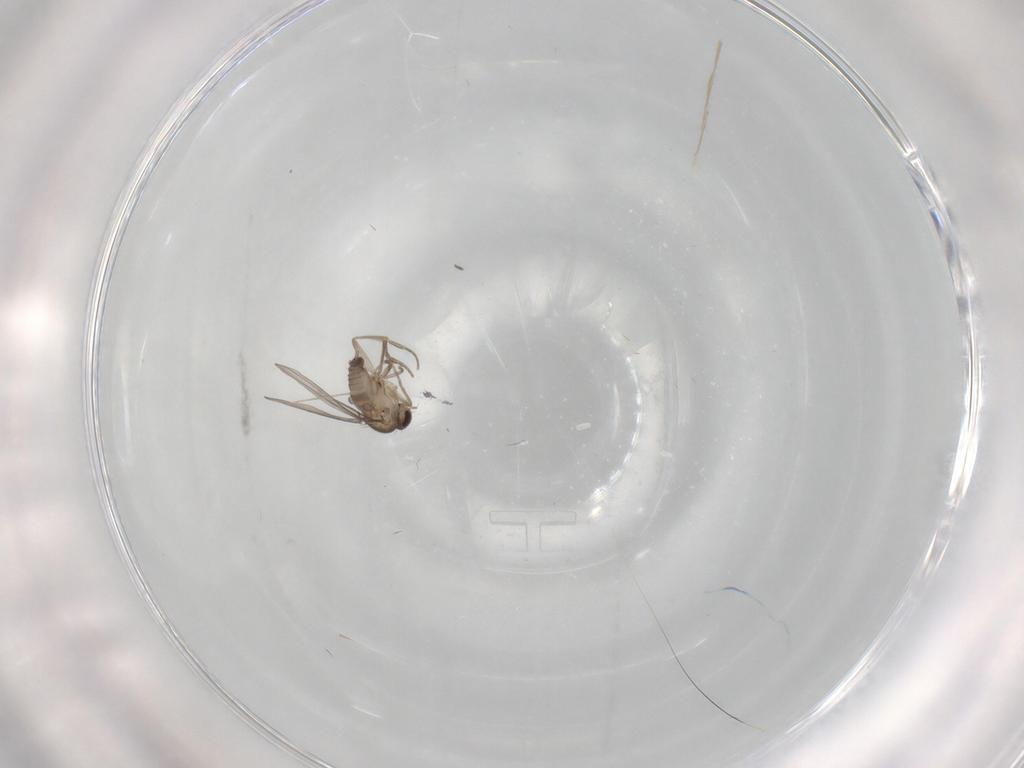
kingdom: Animalia
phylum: Arthropoda
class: Insecta
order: Diptera
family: Phoridae
